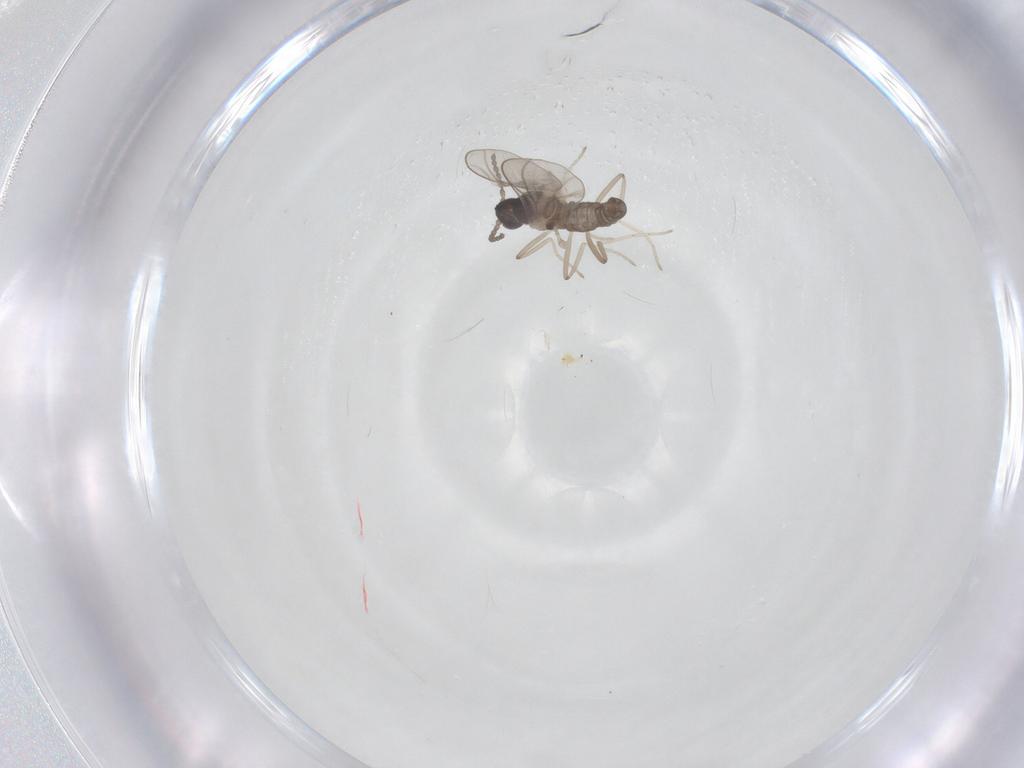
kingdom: Animalia
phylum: Arthropoda
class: Insecta
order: Diptera
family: Cecidomyiidae
